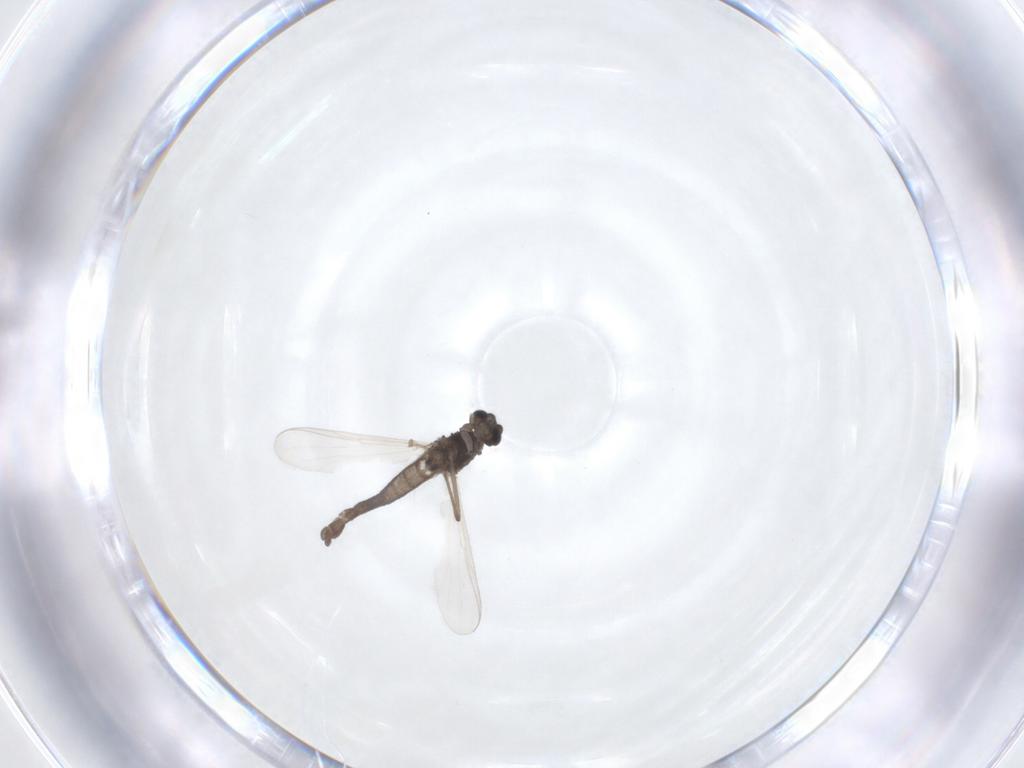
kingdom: Animalia
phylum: Arthropoda
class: Insecta
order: Diptera
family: Chironomidae
